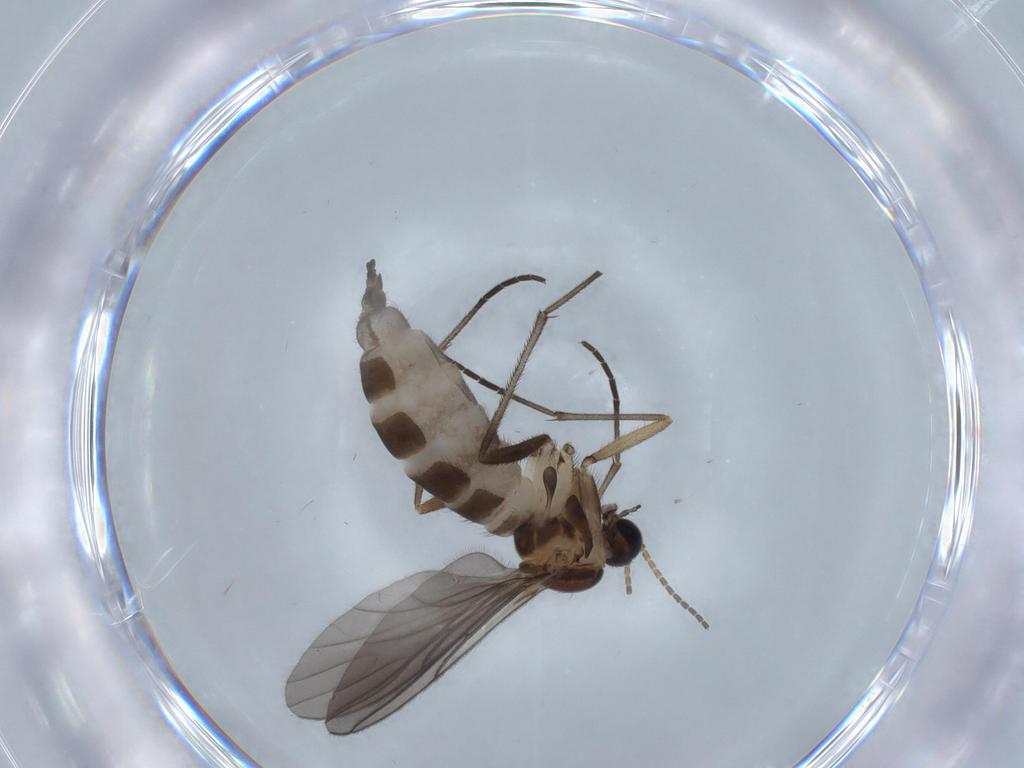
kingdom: Animalia
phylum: Arthropoda
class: Insecta
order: Diptera
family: Sciaridae
